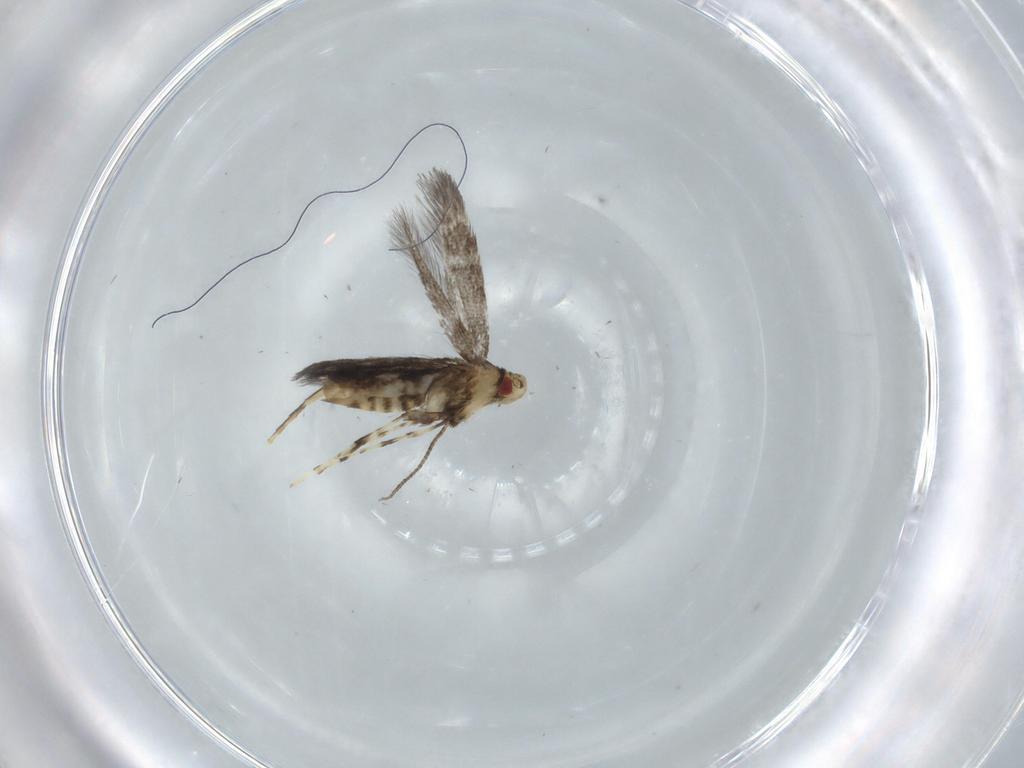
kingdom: Animalia
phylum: Arthropoda
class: Insecta
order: Lepidoptera
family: Gracillariidae
